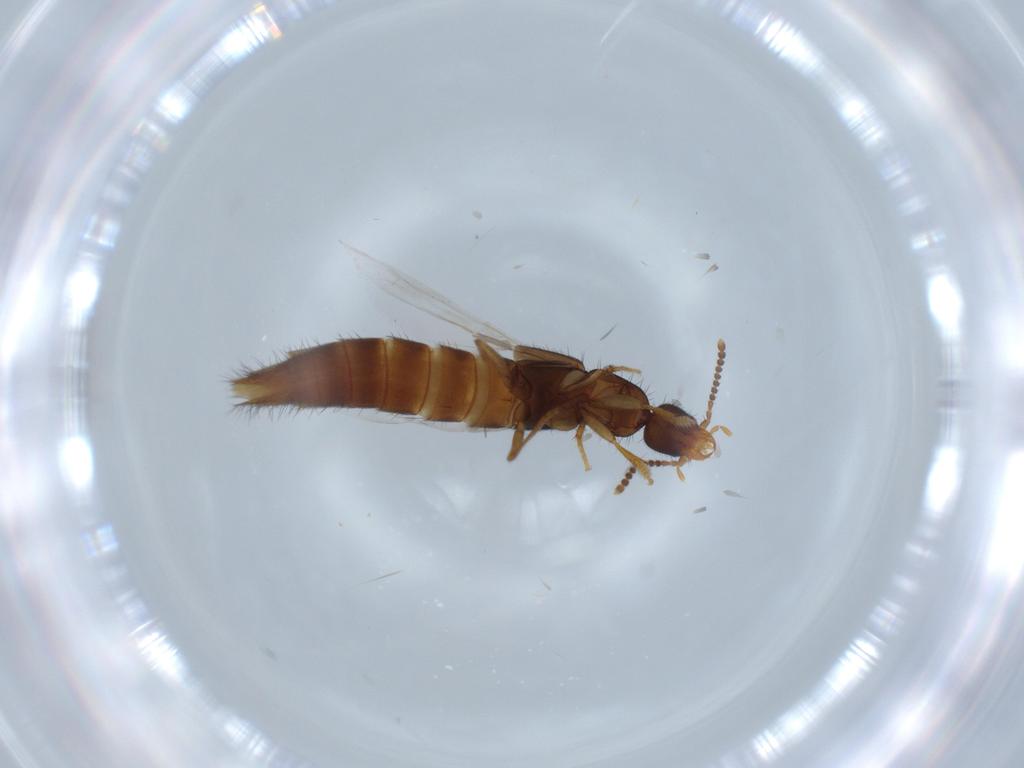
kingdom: Animalia
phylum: Arthropoda
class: Insecta
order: Coleoptera
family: Staphylinidae
